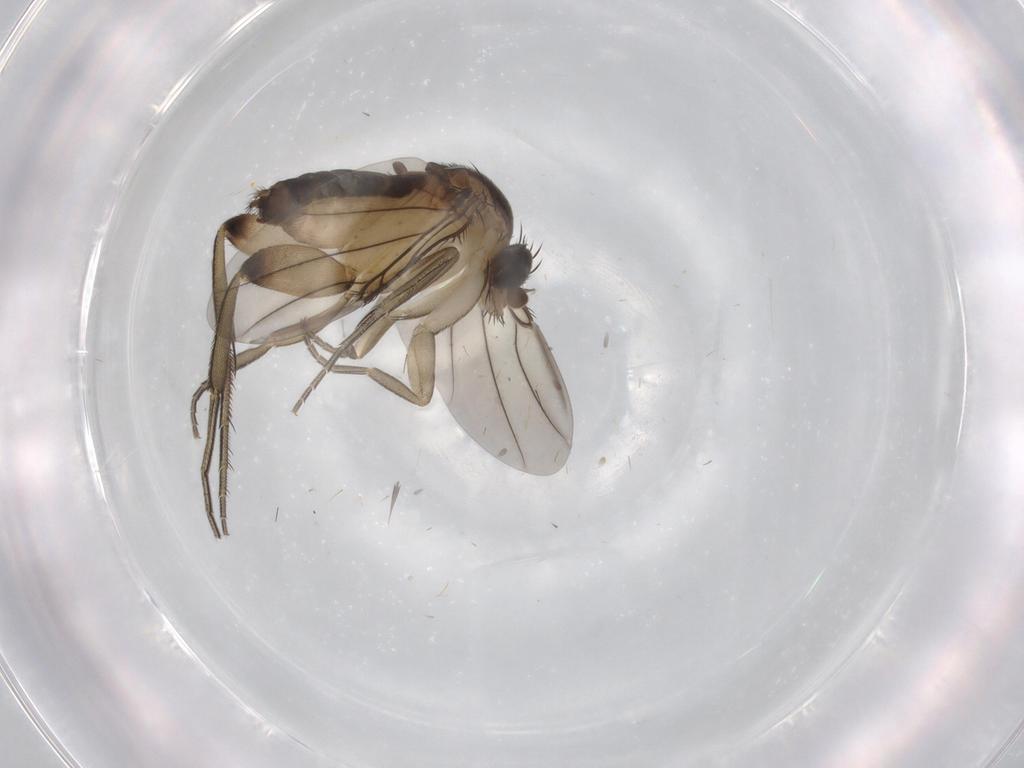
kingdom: Animalia
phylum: Arthropoda
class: Insecta
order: Diptera
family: Phoridae
